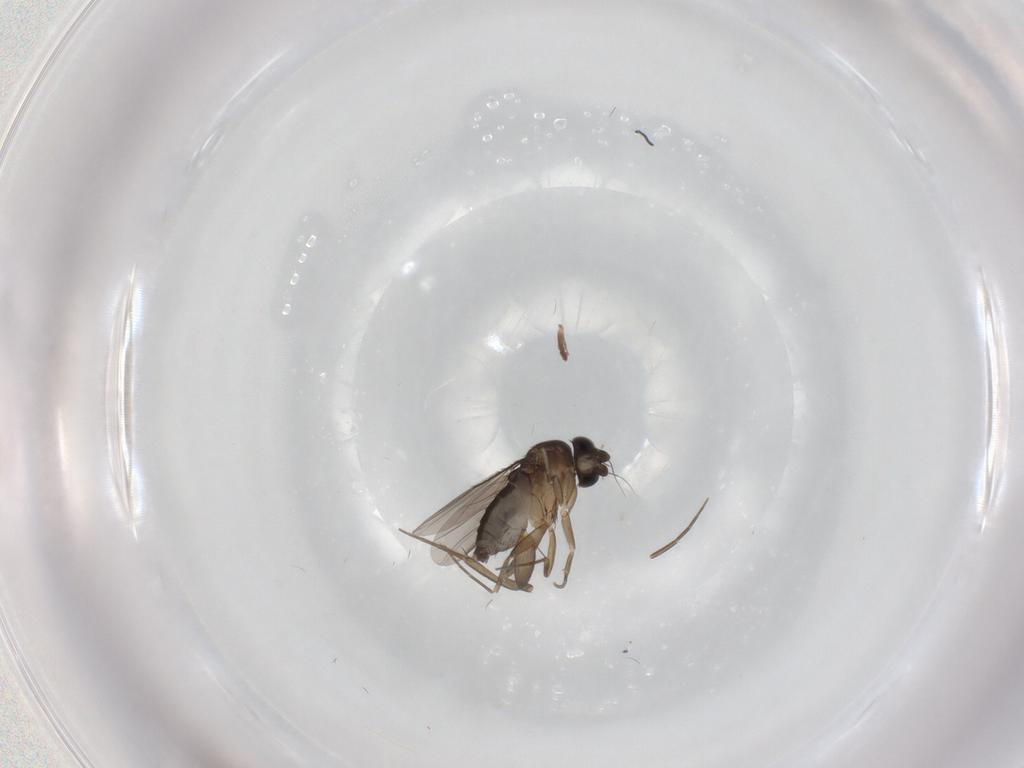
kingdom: Animalia
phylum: Arthropoda
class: Insecta
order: Diptera
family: Phoridae
